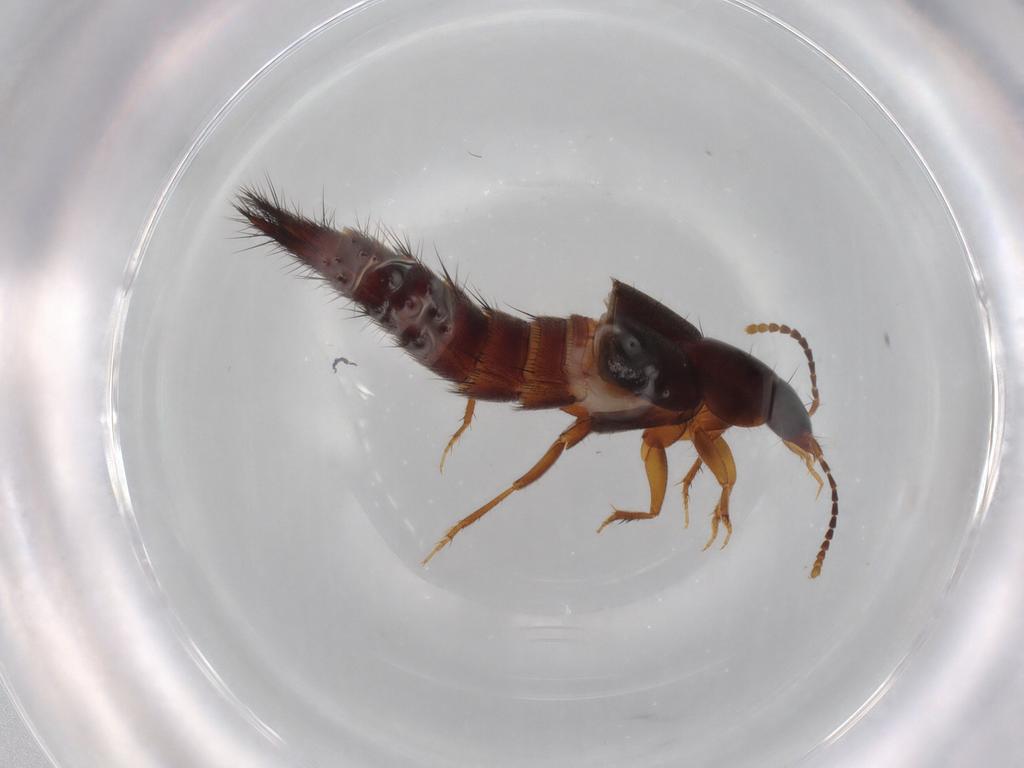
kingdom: Animalia
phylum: Arthropoda
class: Insecta
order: Coleoptera
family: Staphylinidae
